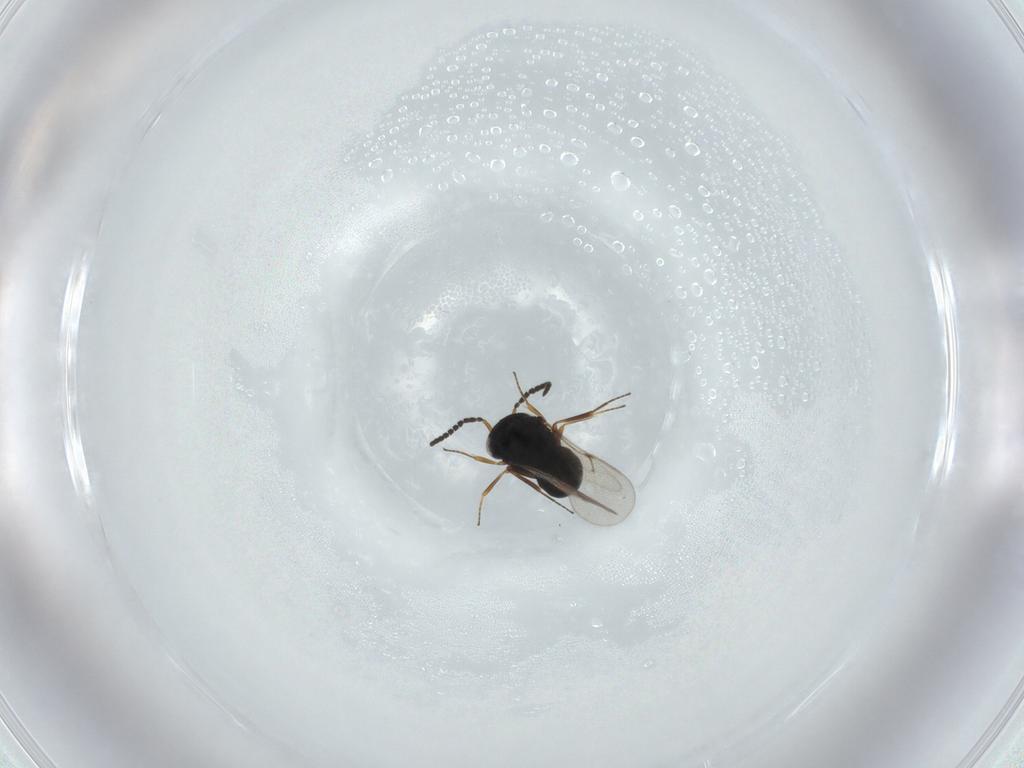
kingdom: Animalia
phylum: Arthropoda
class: Insecta
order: Hymenoptera
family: Scelionidae
